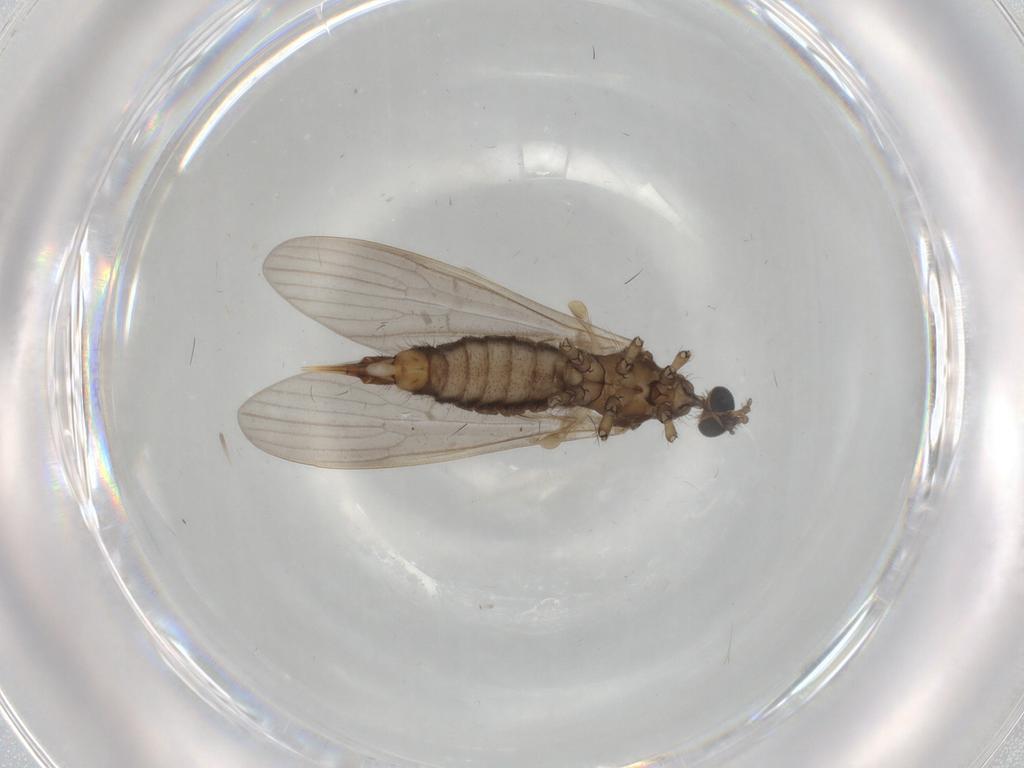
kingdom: Animalia
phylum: Arthropoda
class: Insecta
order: Diptera
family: Limoniidae
